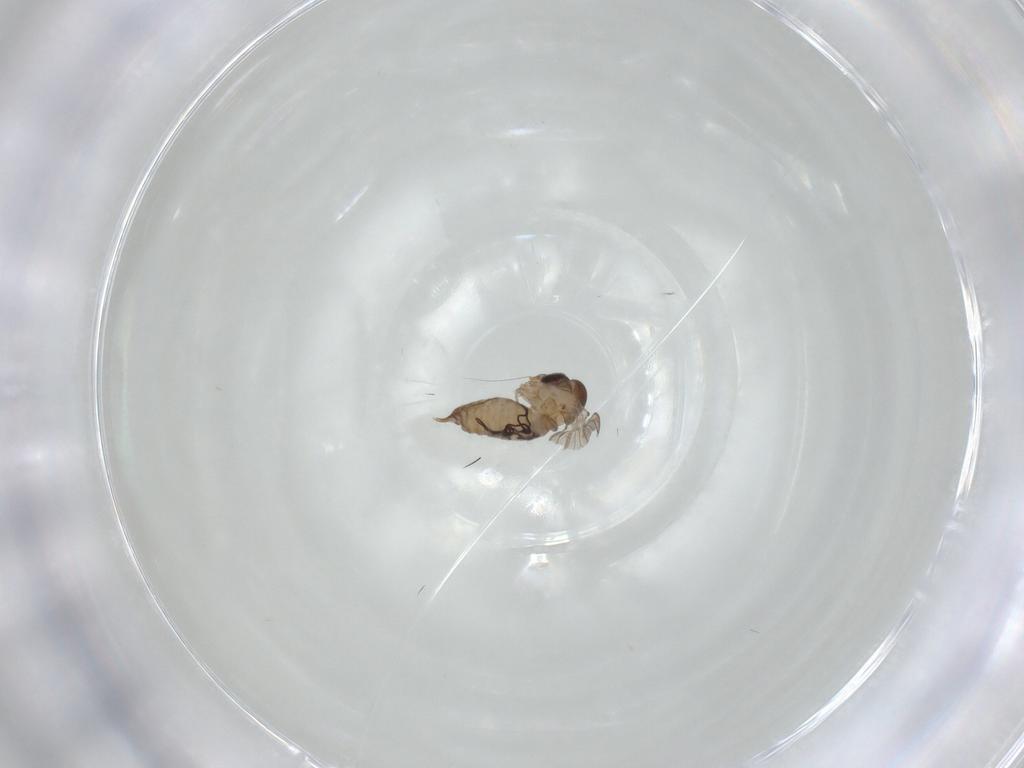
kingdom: Animalia
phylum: Arthropoda
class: Insecta
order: Diptera
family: Psychodidae
